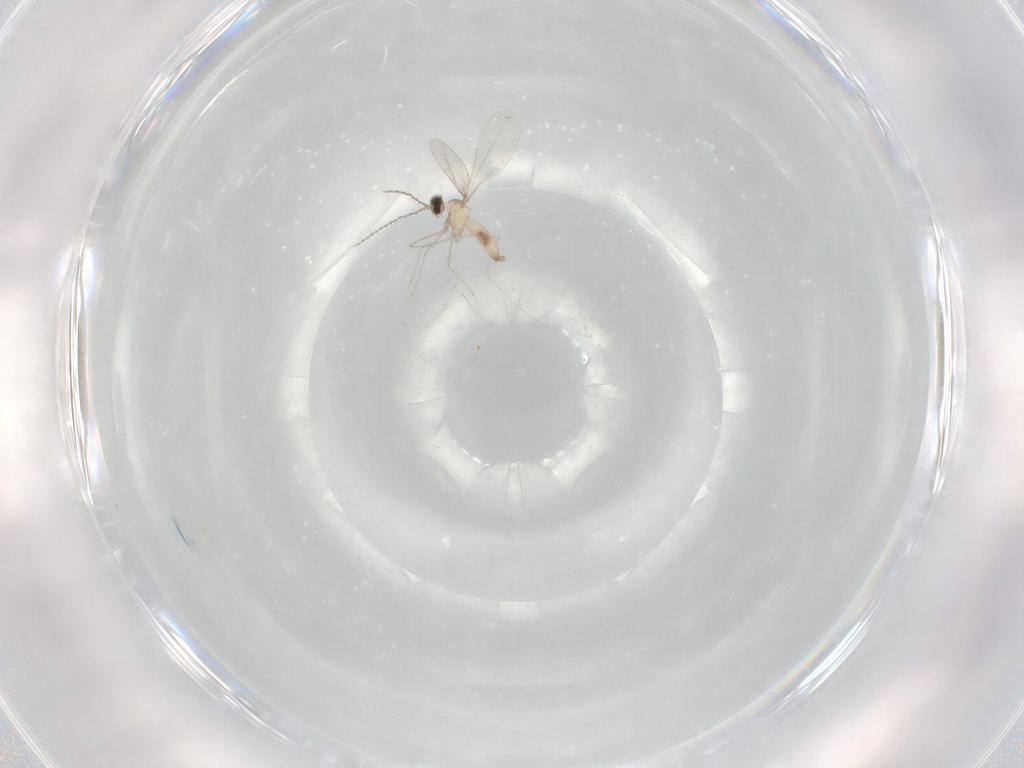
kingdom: Animalia
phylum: Arthropoda
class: Insecta
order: Diptera
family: Cecidomyiidae
